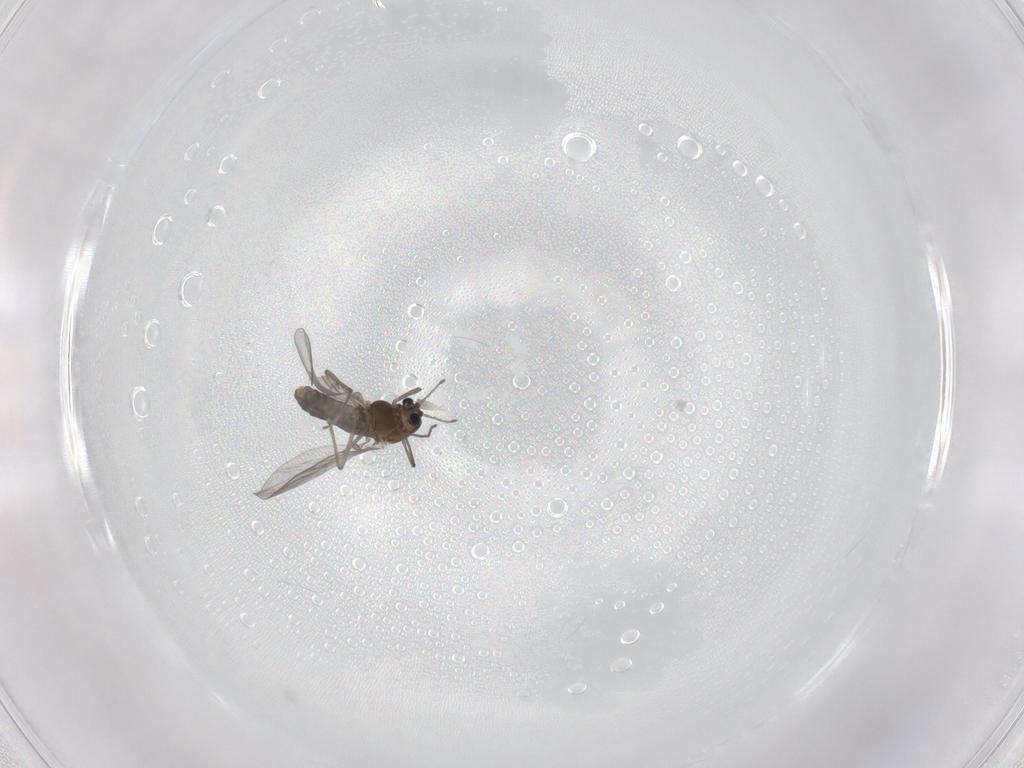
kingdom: Animalia
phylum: Arthropoda
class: Insecta
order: Diptera
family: Chironomidae
